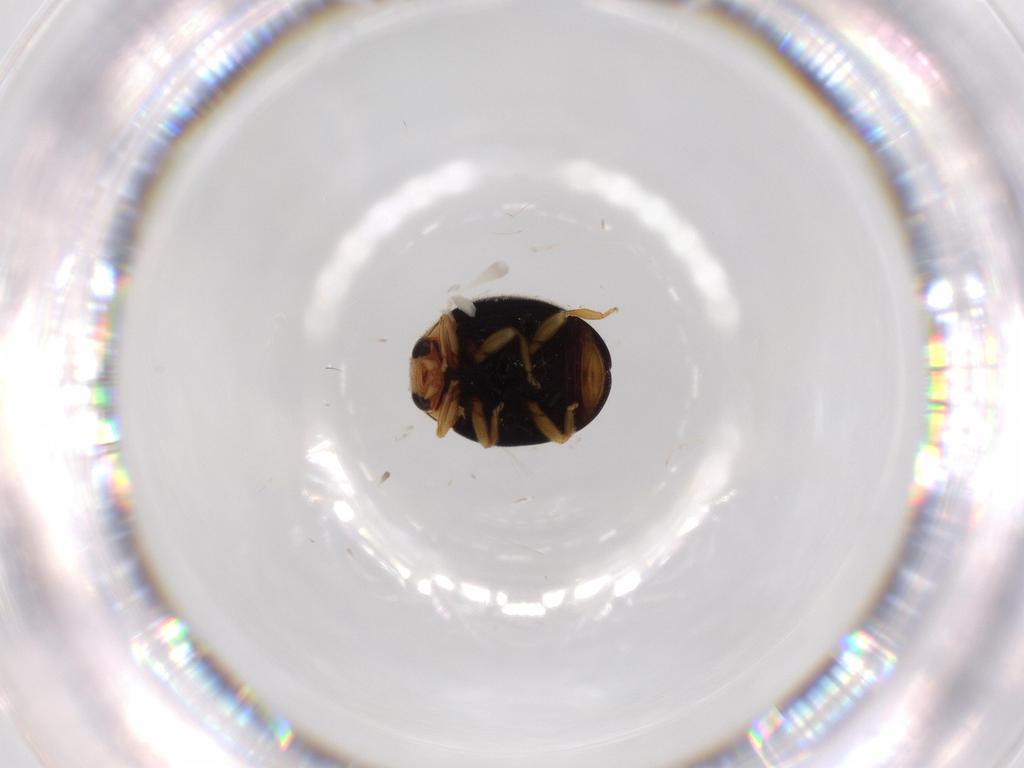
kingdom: Animalia
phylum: Arthropoda
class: Insecta
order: Coleoptera
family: Coccinellidae
